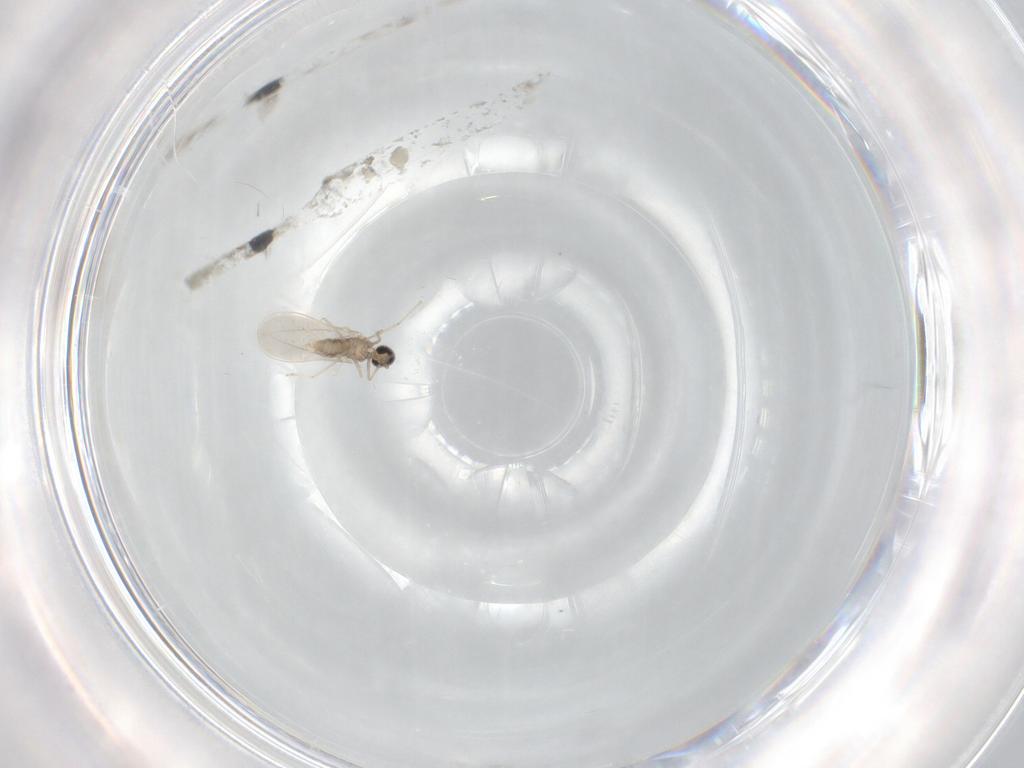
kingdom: Animalia
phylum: Arthropoda
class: Insecta
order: Diptera
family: Cecidomyiidae
